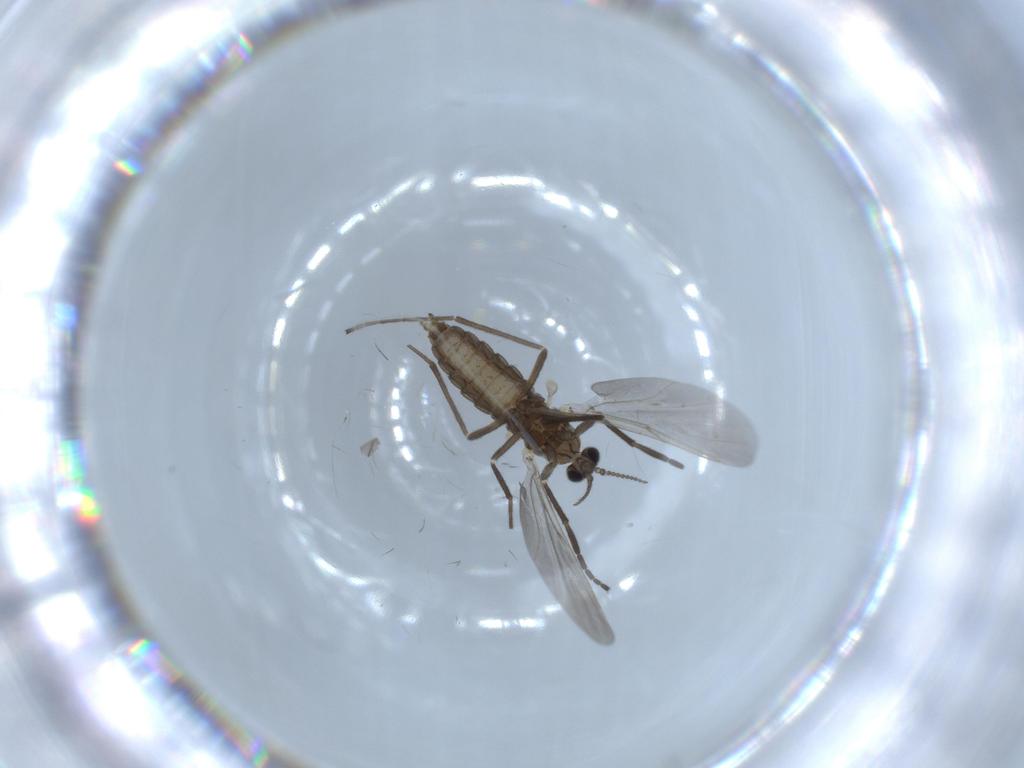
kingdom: Animalia
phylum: Arthropoda
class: Insecta
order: Diptera
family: Cecidomyiidae
